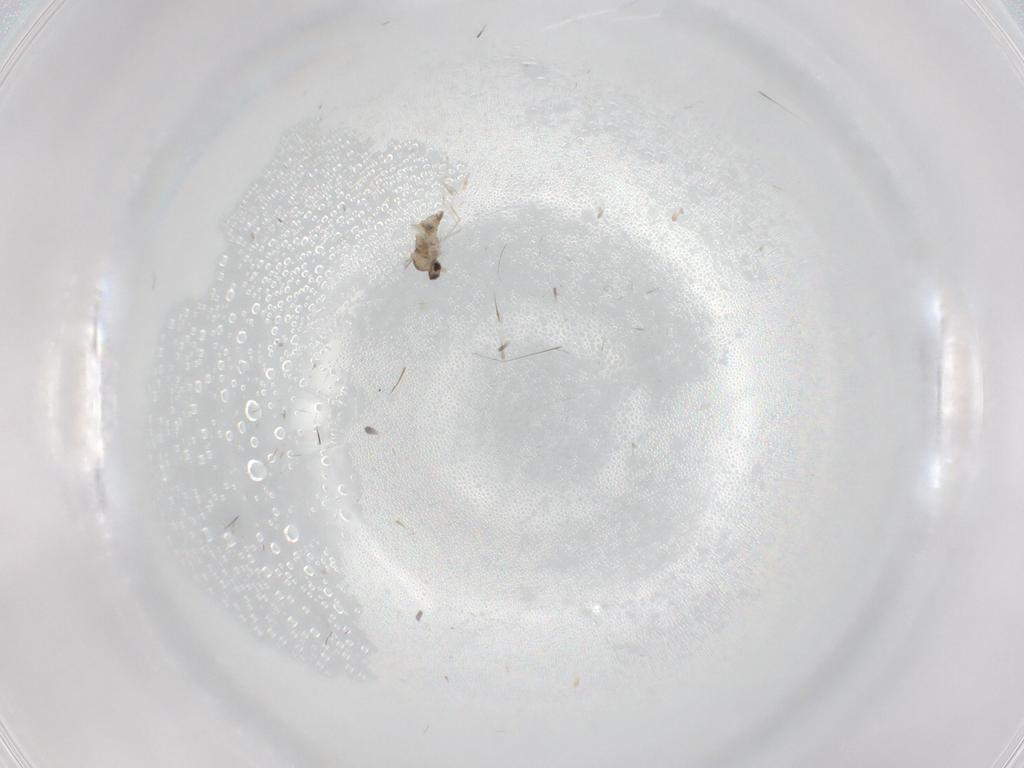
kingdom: Animalia
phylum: Arthropoda
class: Insecta
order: Diptera
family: Cecidomyiidae
